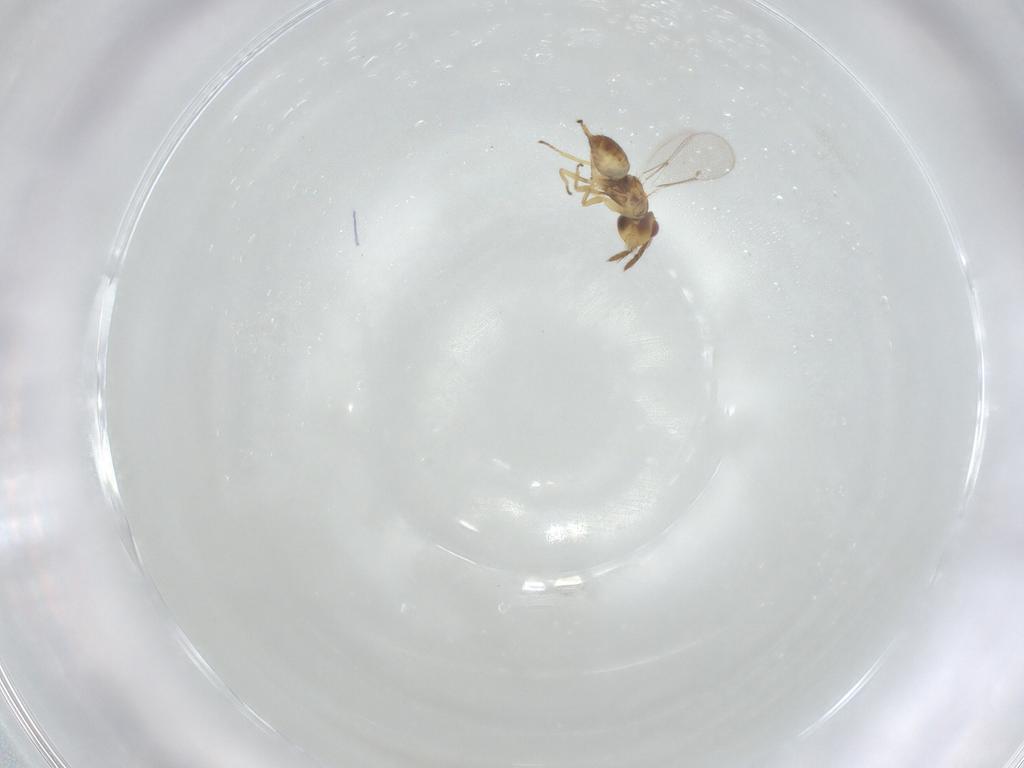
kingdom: Animalia
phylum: Arthropoda
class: Insecta
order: Hymenoptera
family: Eulophidae
